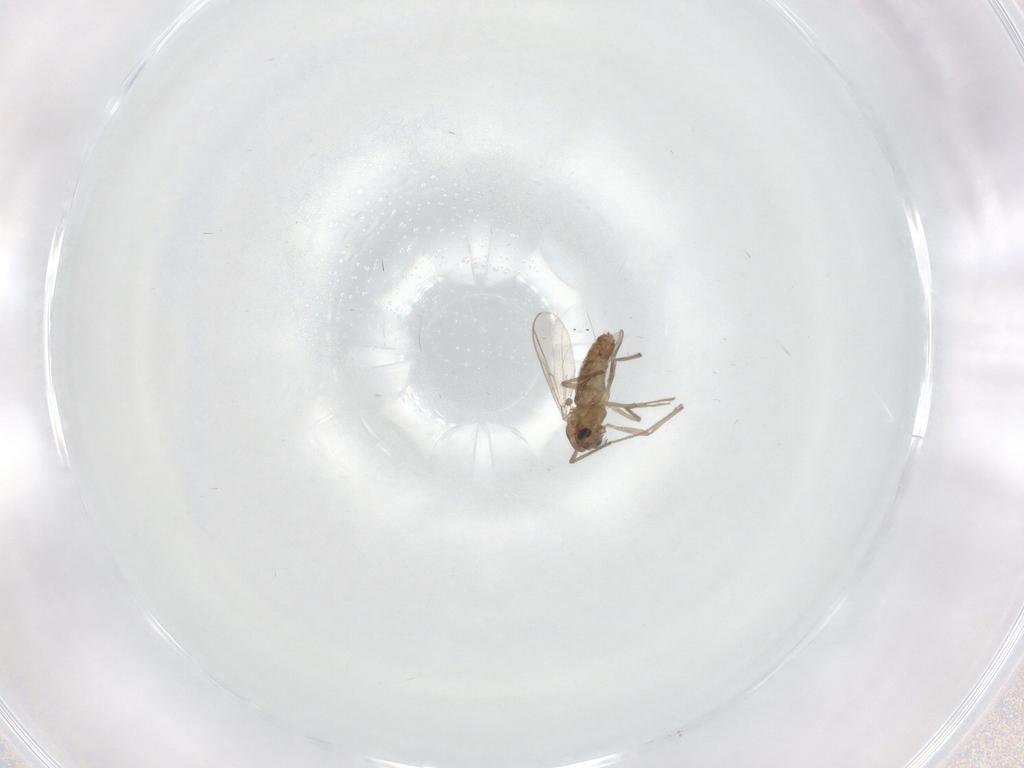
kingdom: Animalia
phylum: Arthropoda
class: Insecta
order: Diptera
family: Chironomidae
